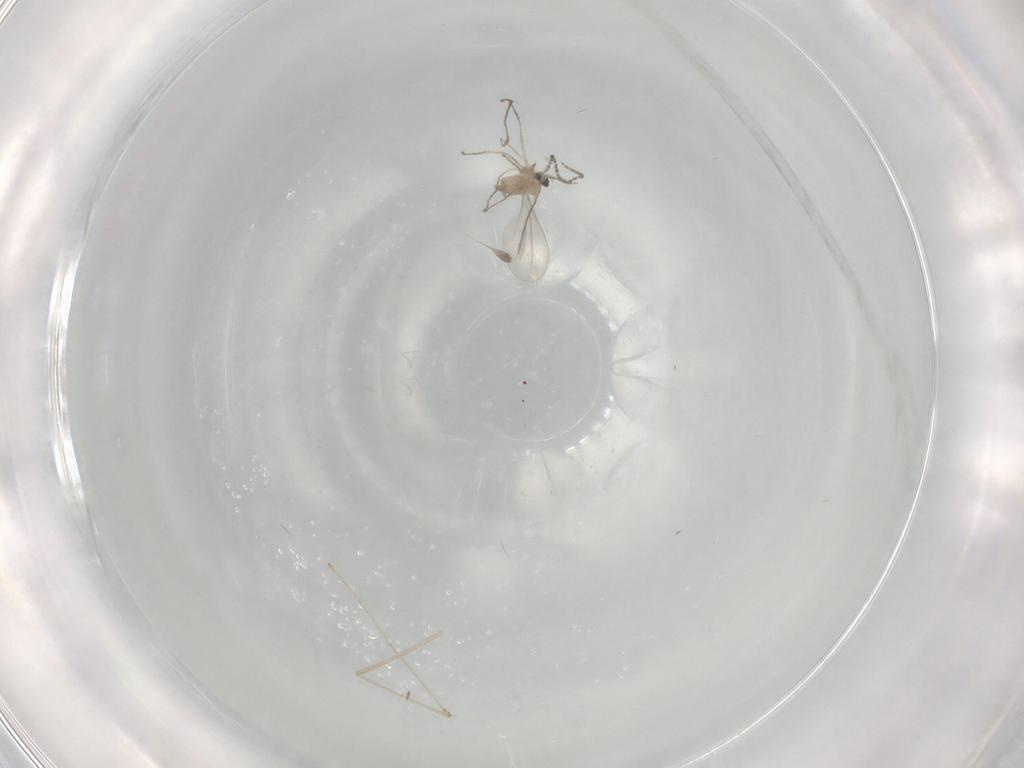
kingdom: Animalia
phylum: Arthropoda
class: Insecta
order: Diptera
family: Cecidomyiidae
